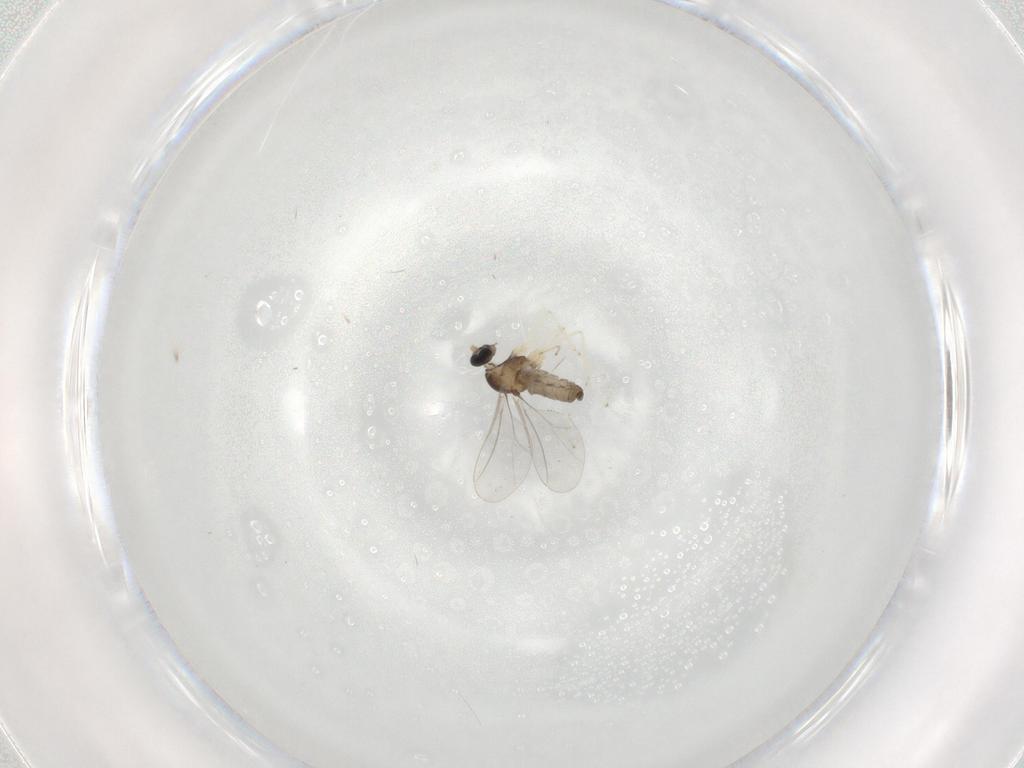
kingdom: Animalia
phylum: Arthropoda
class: Insecta
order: Diptera
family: Cecidomyiidae
